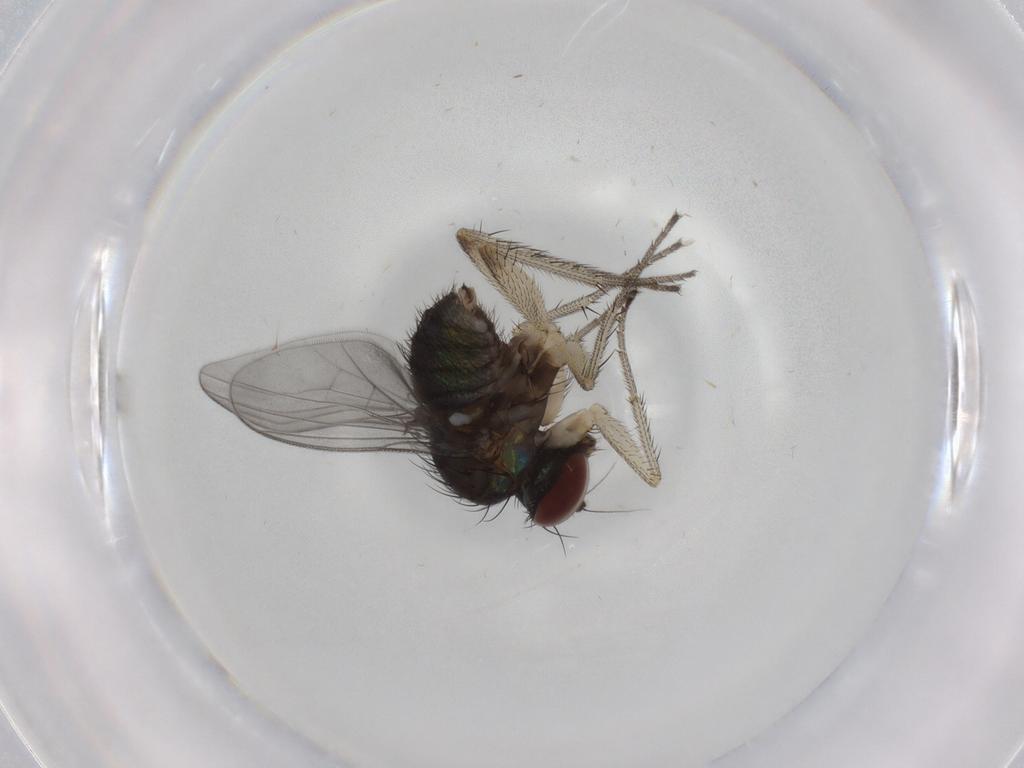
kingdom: Animalia
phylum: Arthropoda
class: Insecta
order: Diptera
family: Dolichopodidae
